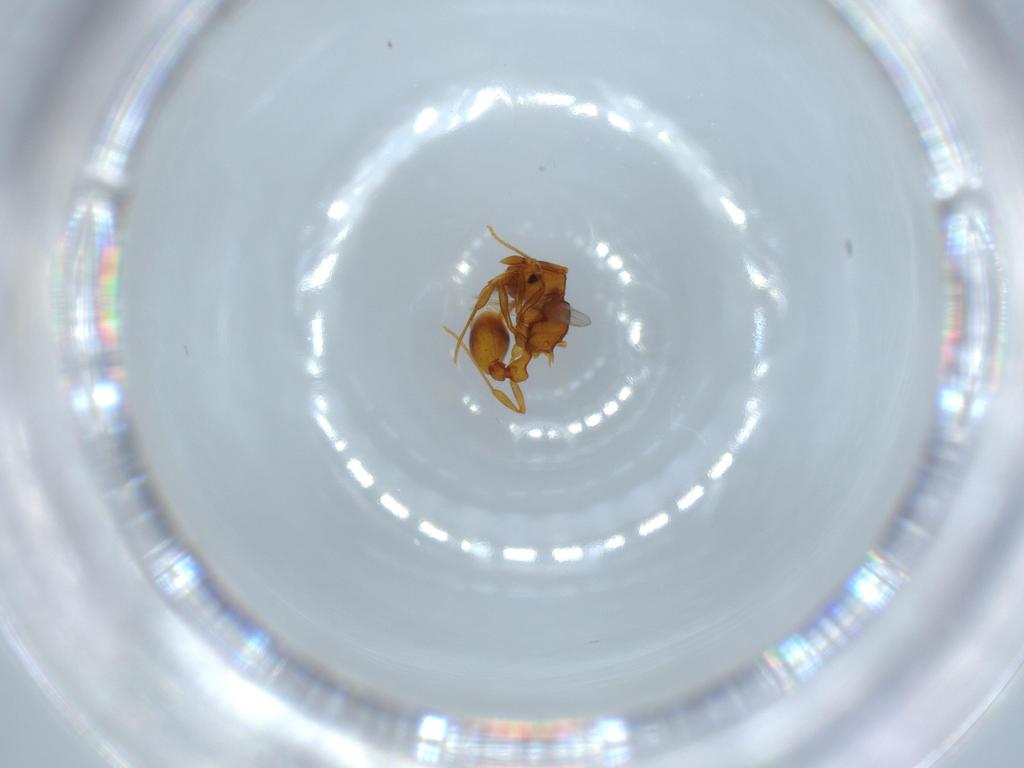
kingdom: Animalia
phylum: Arthropoda
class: Insecta
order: Hymenoptera
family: Formicidae
